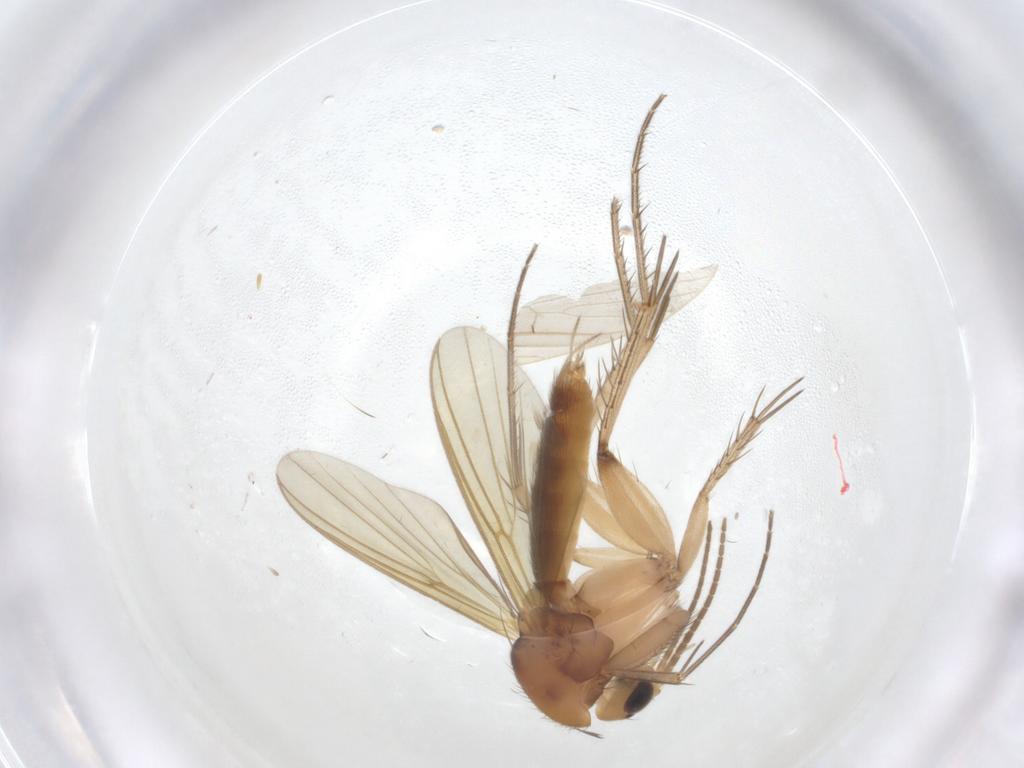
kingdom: Animalia
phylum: Arthropoda
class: Insecta
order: Diptera
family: Mycetophilidae
